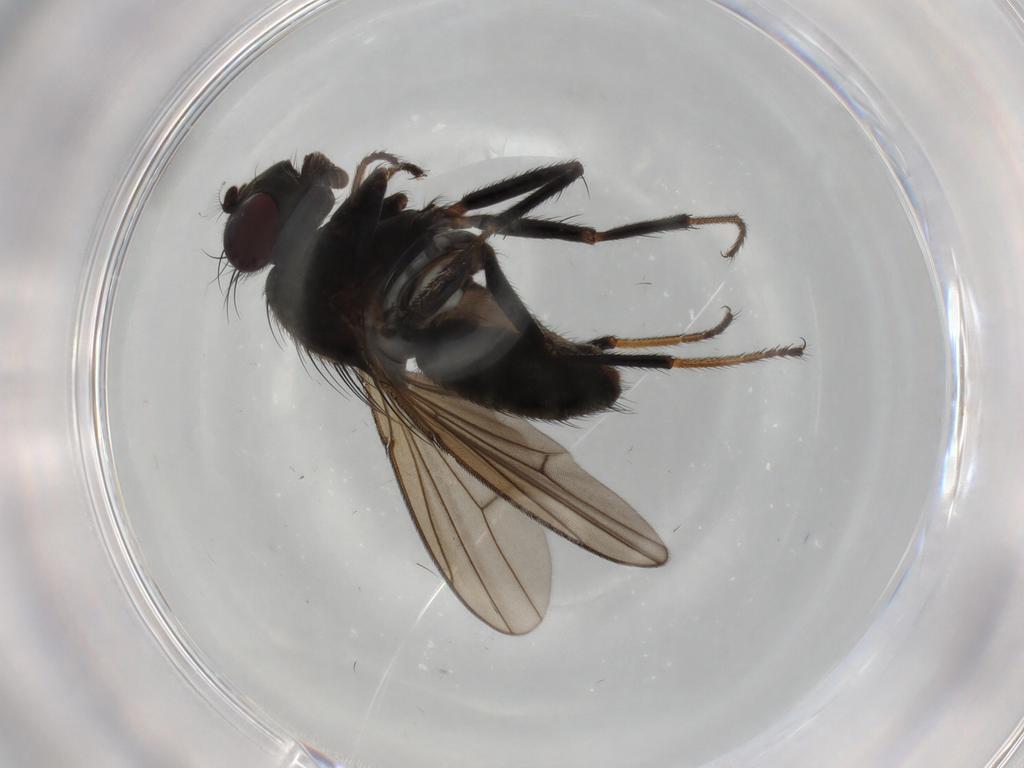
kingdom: Animalia
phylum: Arthropoda
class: Insecta
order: Diptera
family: Ephydridae
